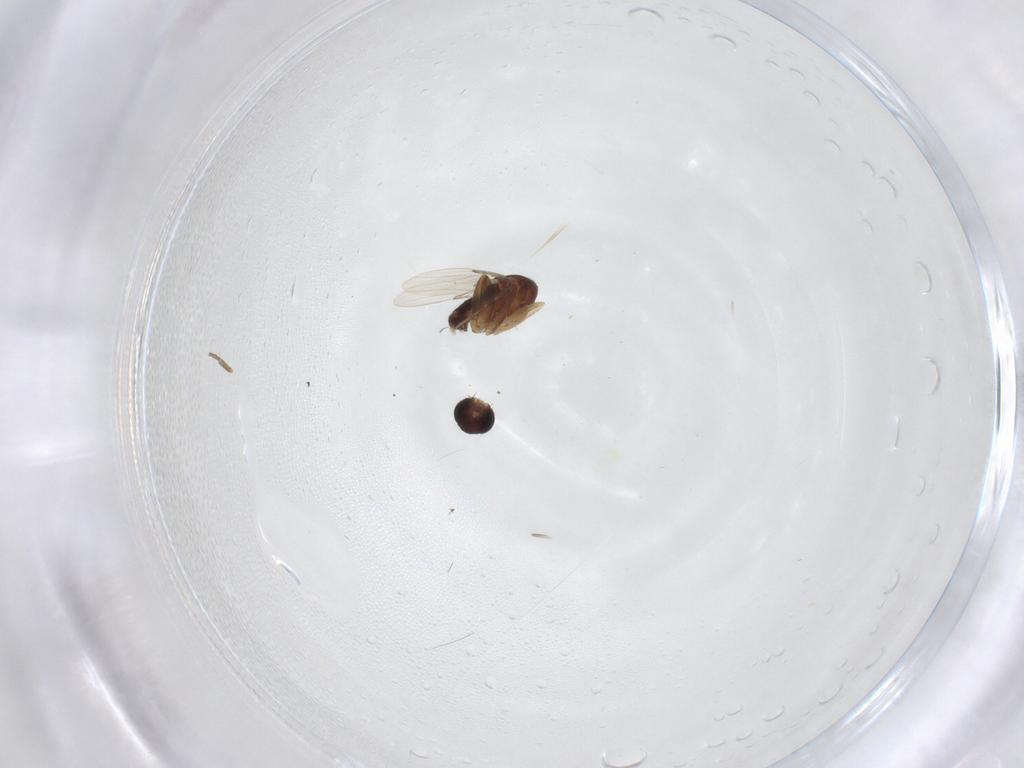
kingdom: Animalia
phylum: Arthropoda
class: Insecta
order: Diptera
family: Phoridae
